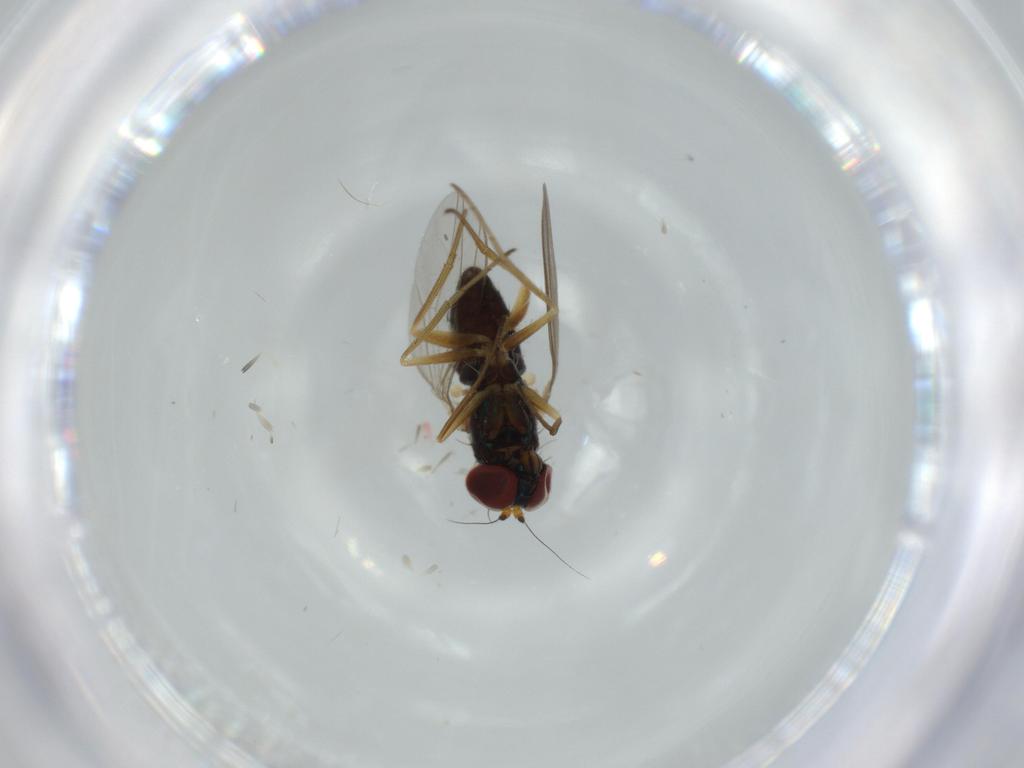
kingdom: Animalia
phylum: Arthropoda
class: Insecta
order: Diptera
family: Dolichopodidae
